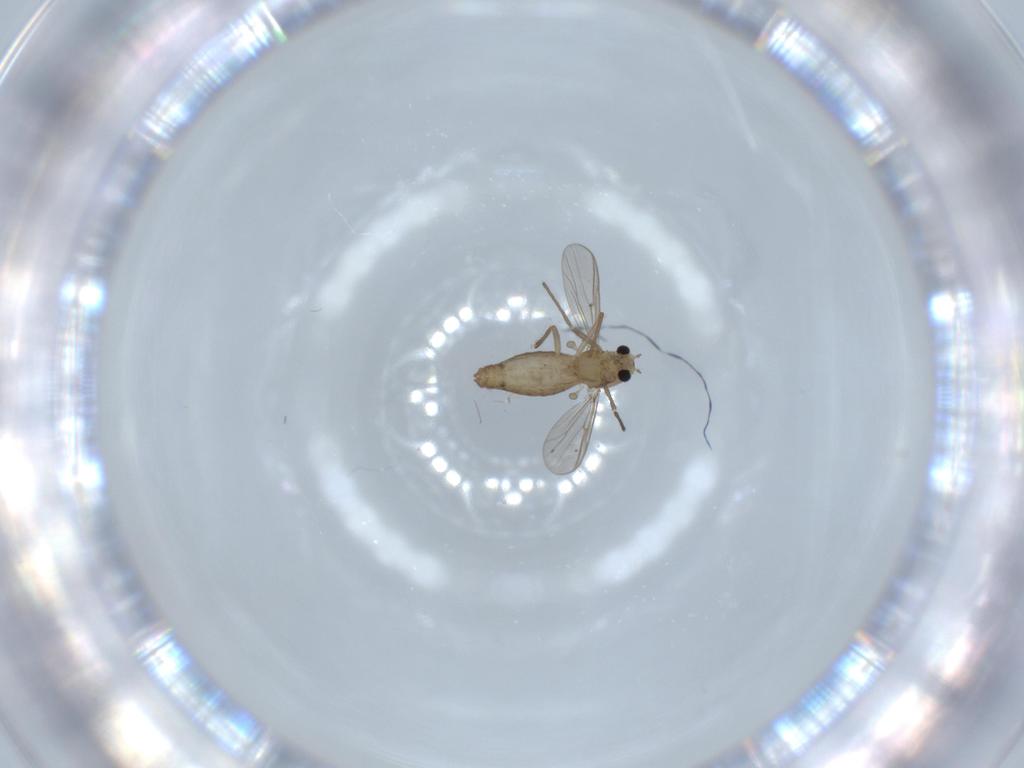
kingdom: Animalia
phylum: Arthropoda
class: Insecta
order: Diptera
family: Chironomidae
